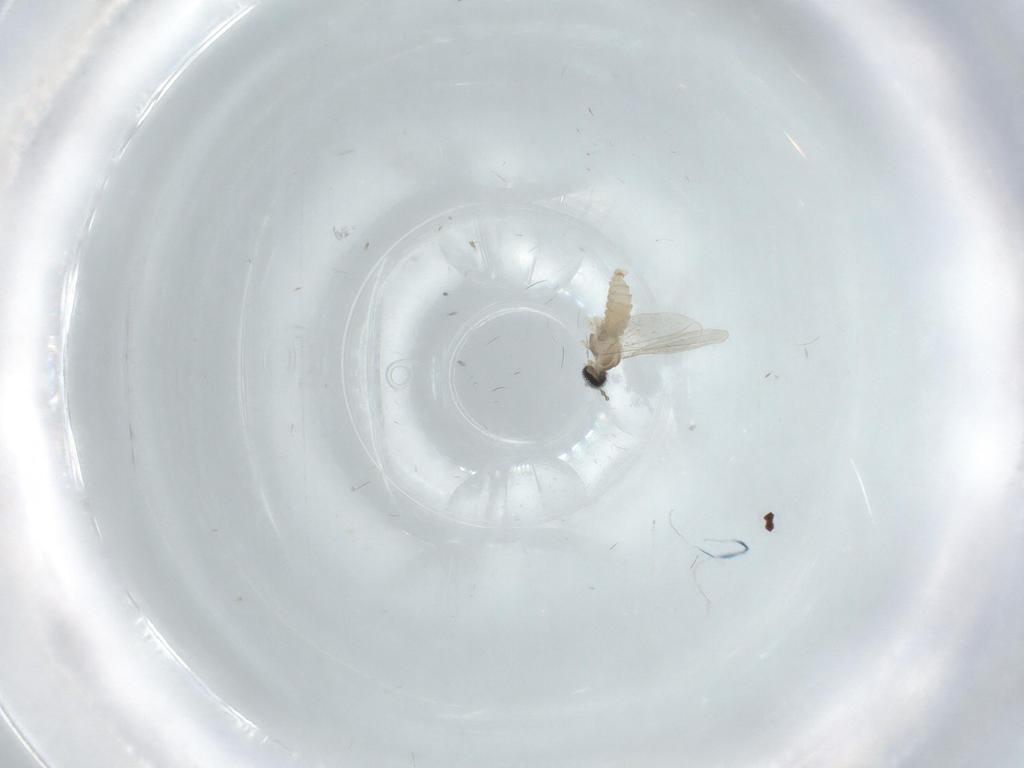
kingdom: Animalia
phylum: Arthropoda
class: Insecta
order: Diptera
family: Cecidomyiidae
